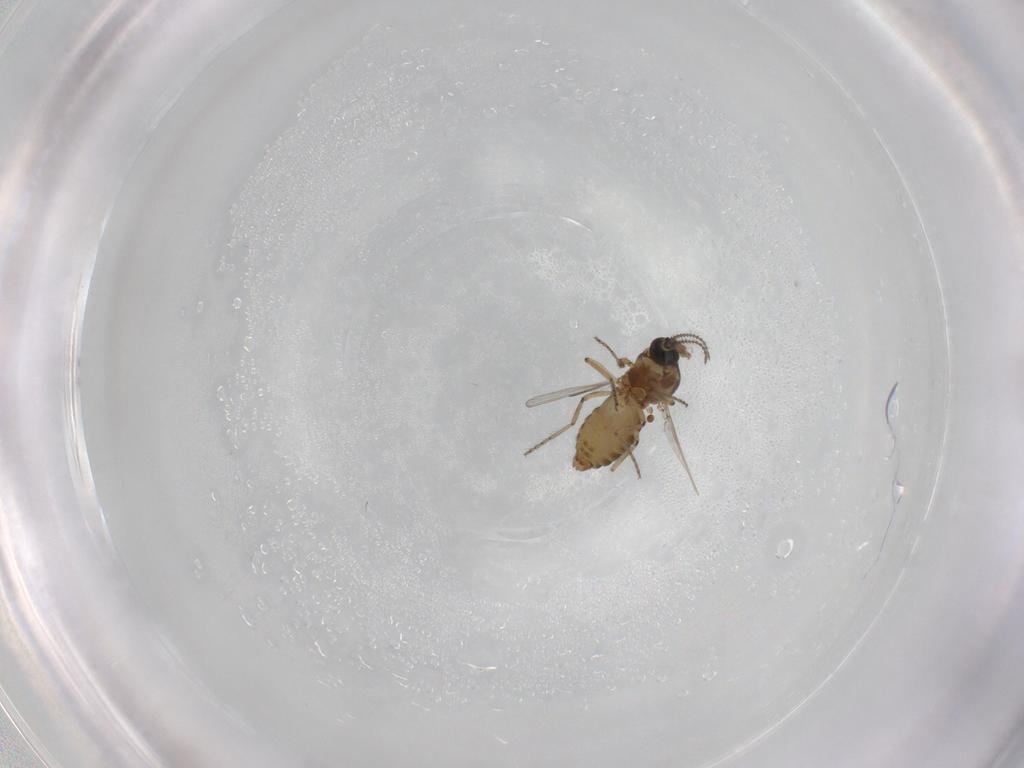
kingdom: Animalia
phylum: Arthropoda
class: Insecta
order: Diptera
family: Ceratopogonidae
